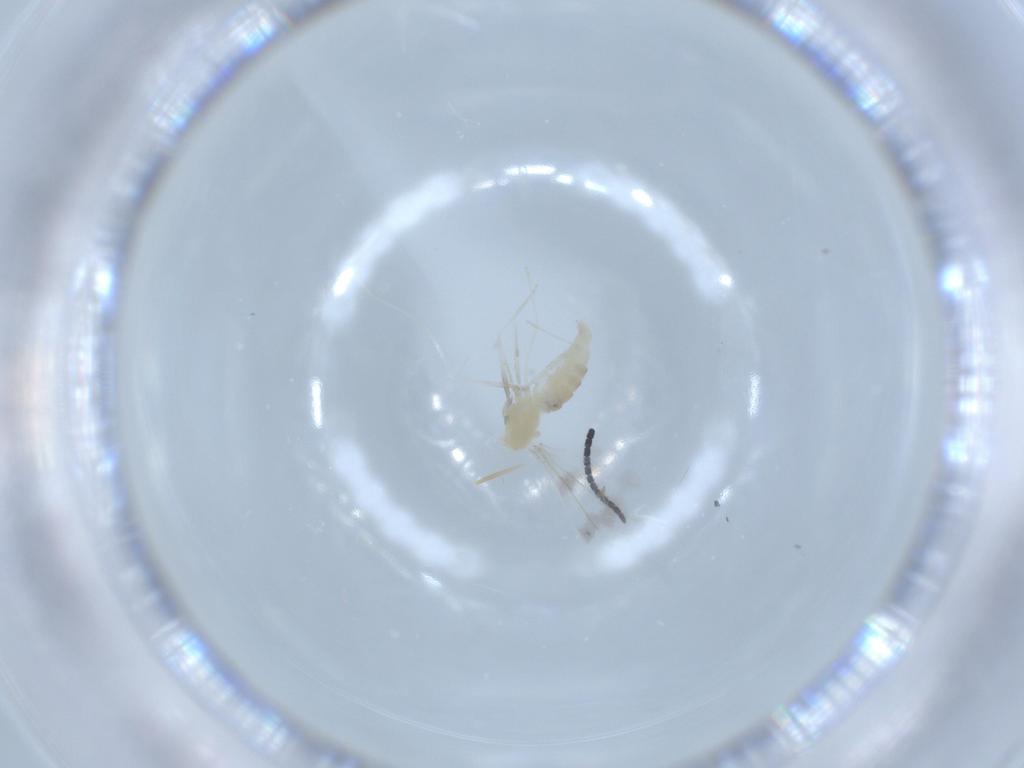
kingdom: Animalia
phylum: Arthropoda
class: Insecta
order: Diptera
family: Cecidomyiidae
